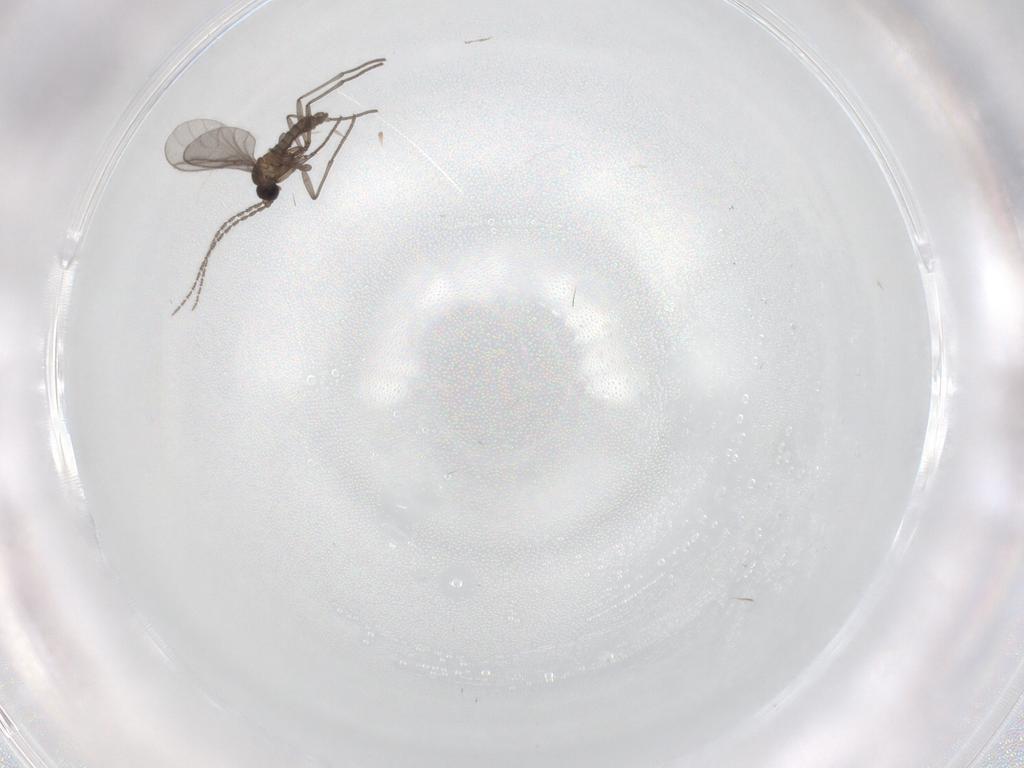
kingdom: Animalia
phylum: Arthropoda
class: Insecta
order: Diptera
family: Sciaridae
